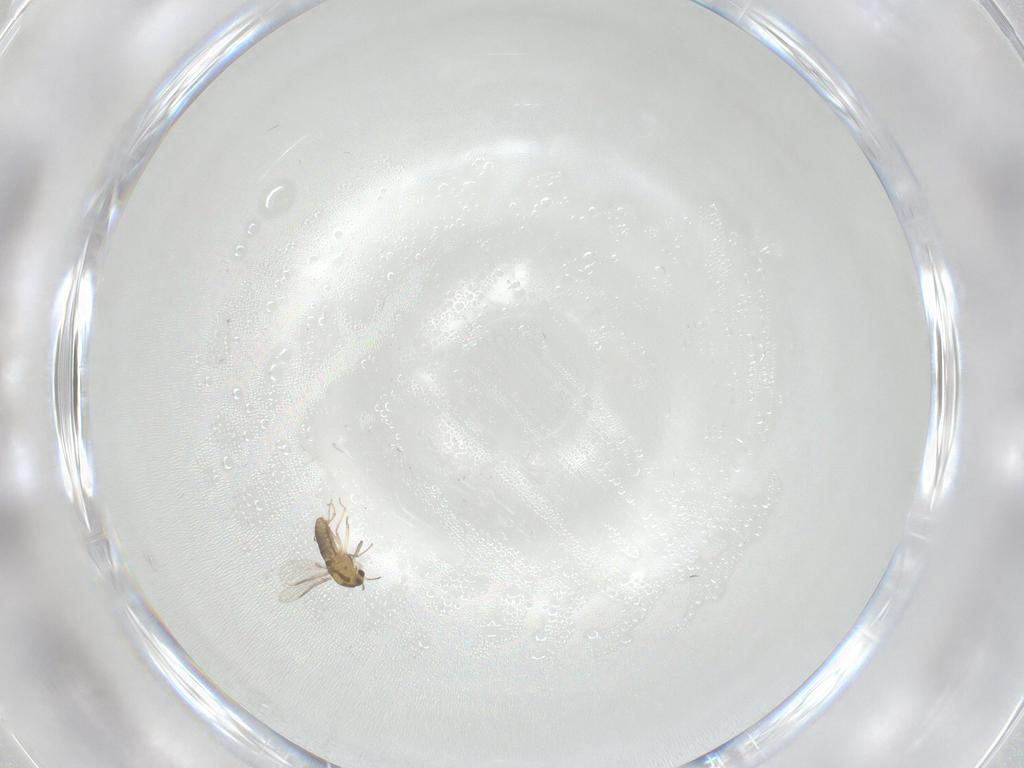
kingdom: Animalia
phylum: Arthropoda
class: Insecta
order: Diptera
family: Chironomidae
